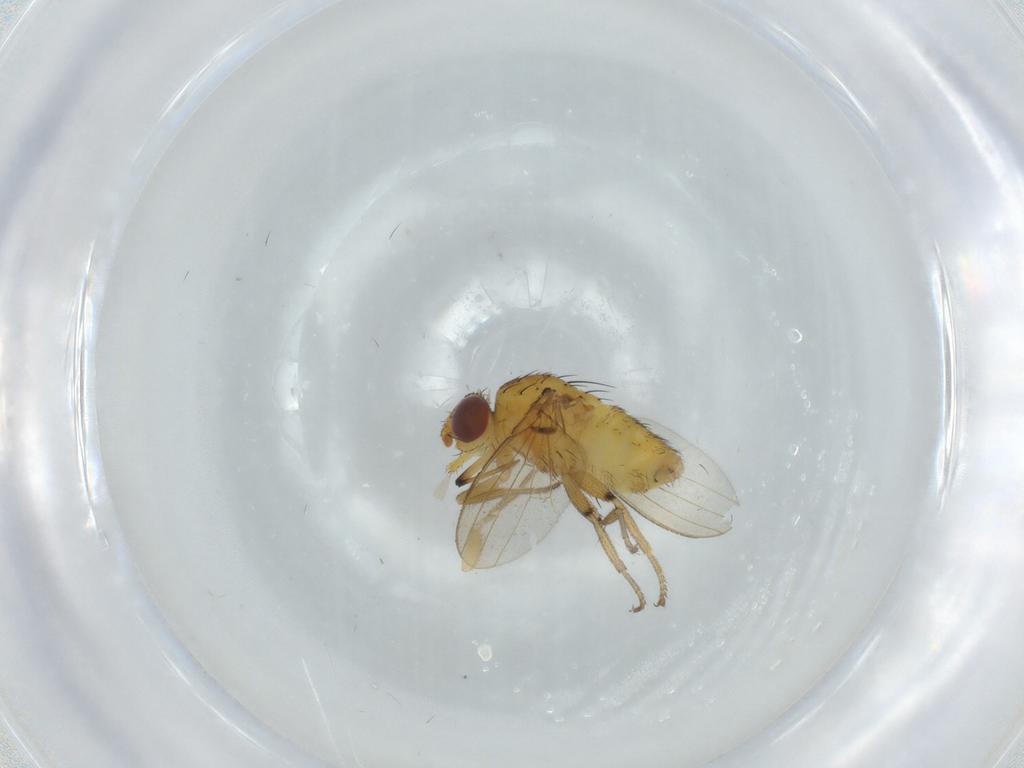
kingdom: Animalia
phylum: Arthropoda
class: Insecta
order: Diptera
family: Milichiidae
